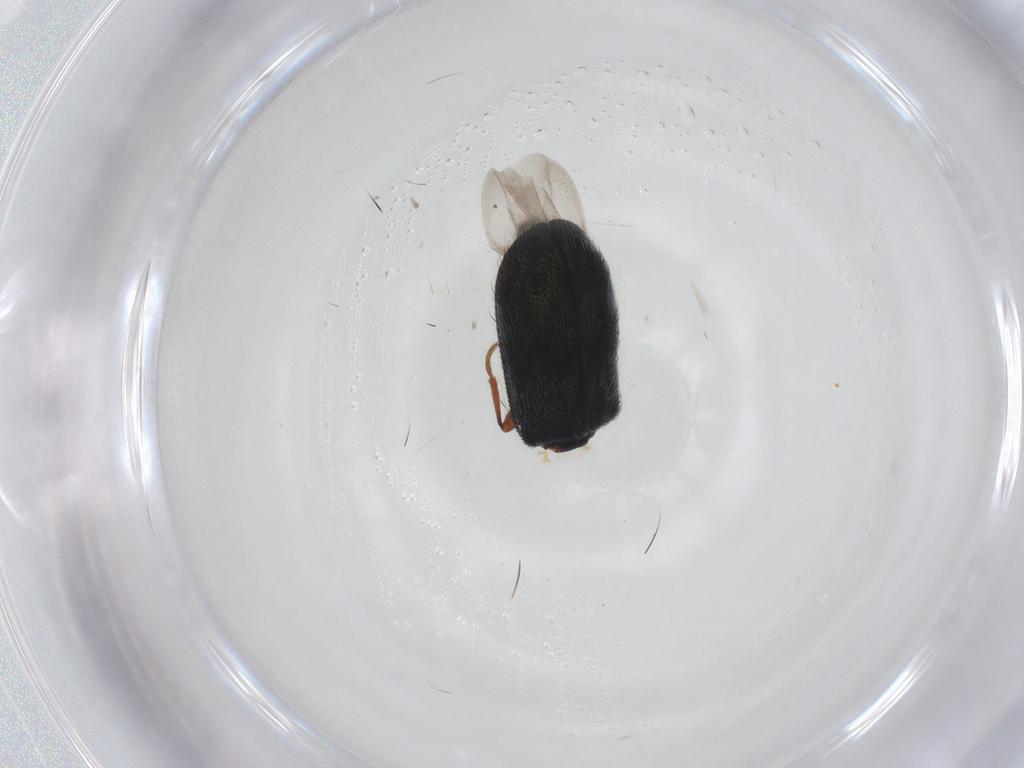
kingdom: Animalia
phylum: Arthropoda
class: Insecta
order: Coleoptera
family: Melyridae
